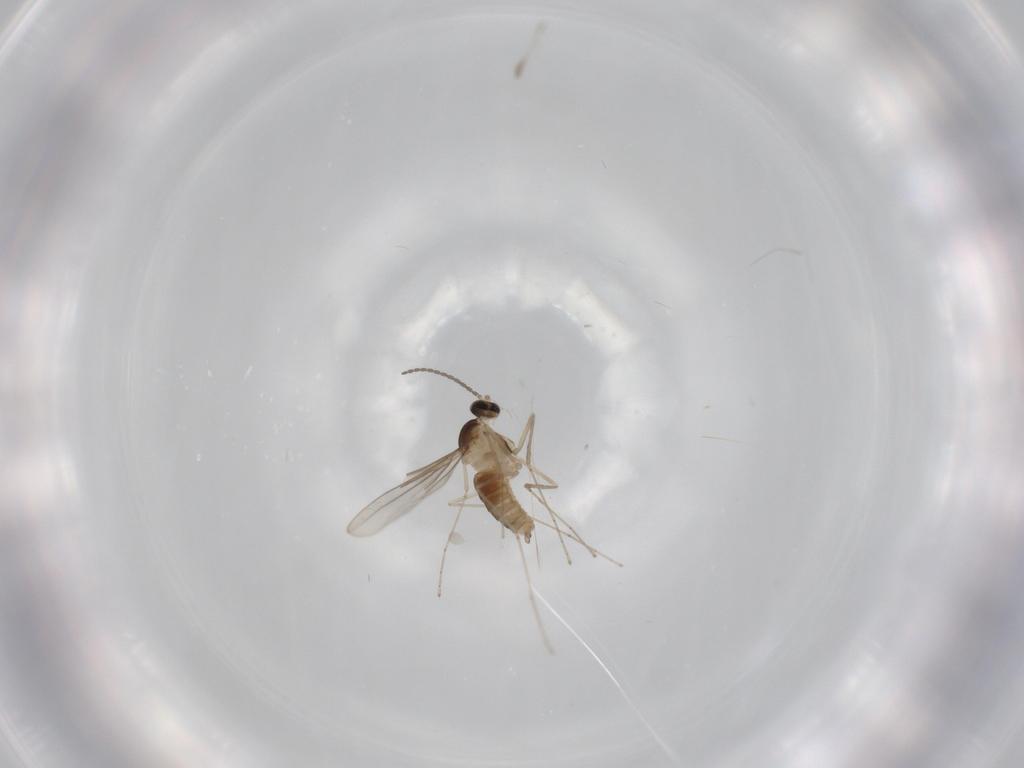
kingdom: Animalia
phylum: Arthropoda
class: Insecta
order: Diptera
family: Cecidomyiidae
